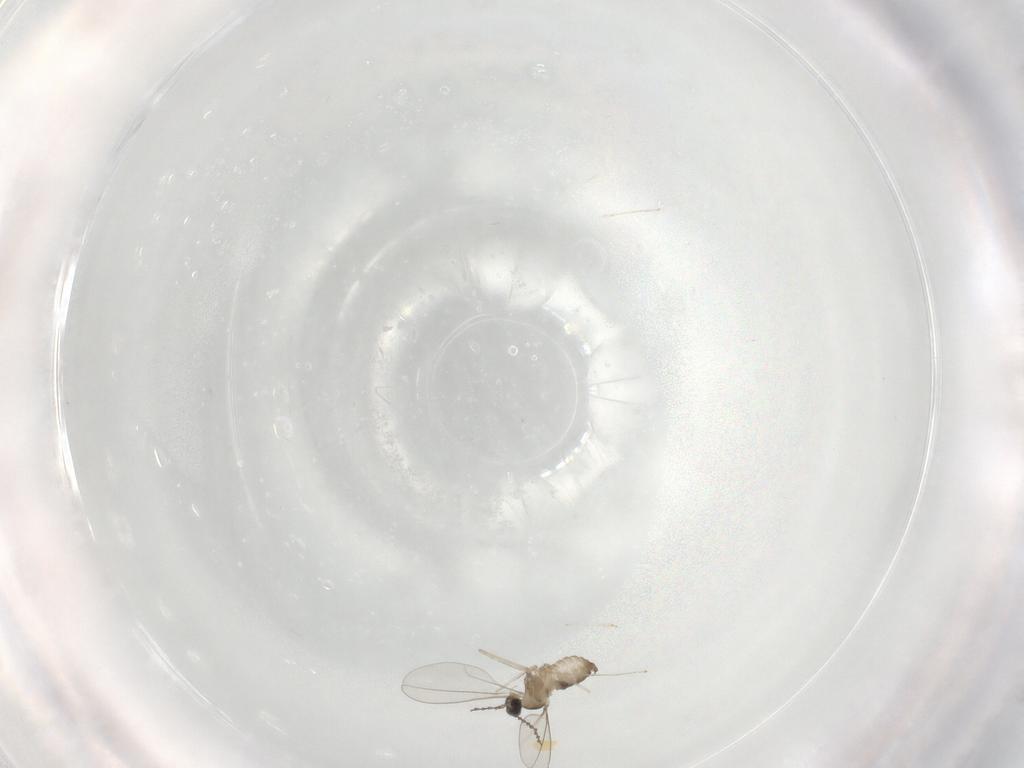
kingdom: Animalia
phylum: Arthropoda
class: Insecta
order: Diptera
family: Cecidomyiidae
